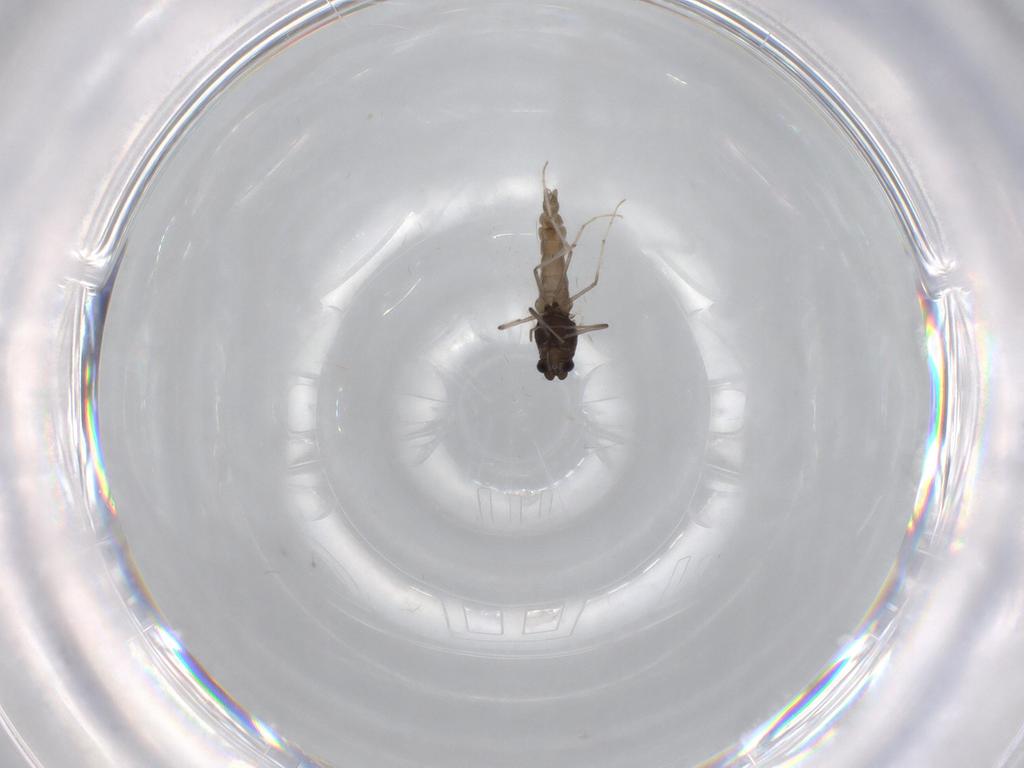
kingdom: Animalia
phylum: Arthropoda
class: Insecta
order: Diptera
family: Chironomidae
